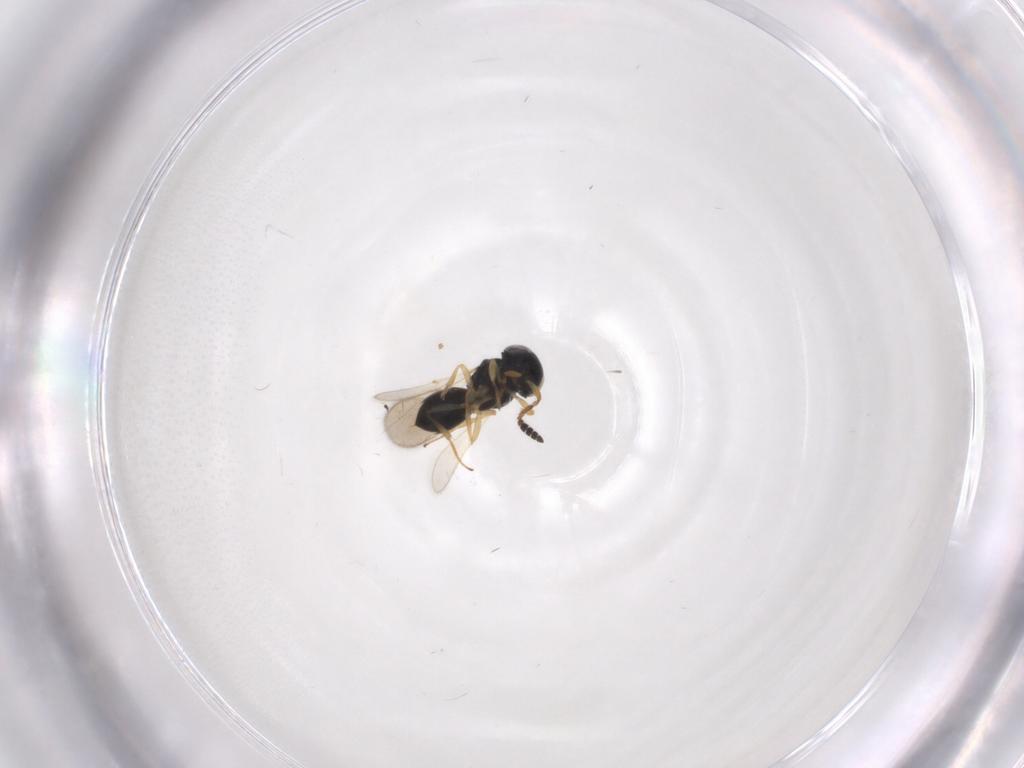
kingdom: Animalia
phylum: Arthropoda
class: Insecta
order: Hymenoptera
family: Scelionidae
